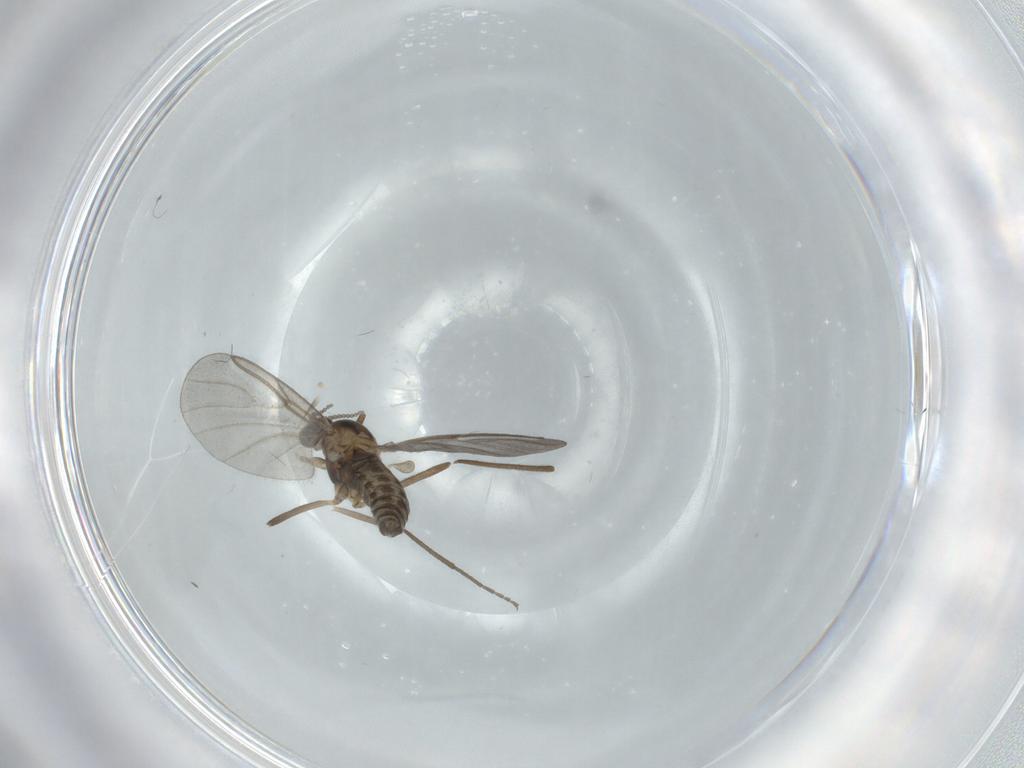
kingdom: Animalia
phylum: Arthropoda
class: Insecta
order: Diptera
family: Cecidomyiidae
